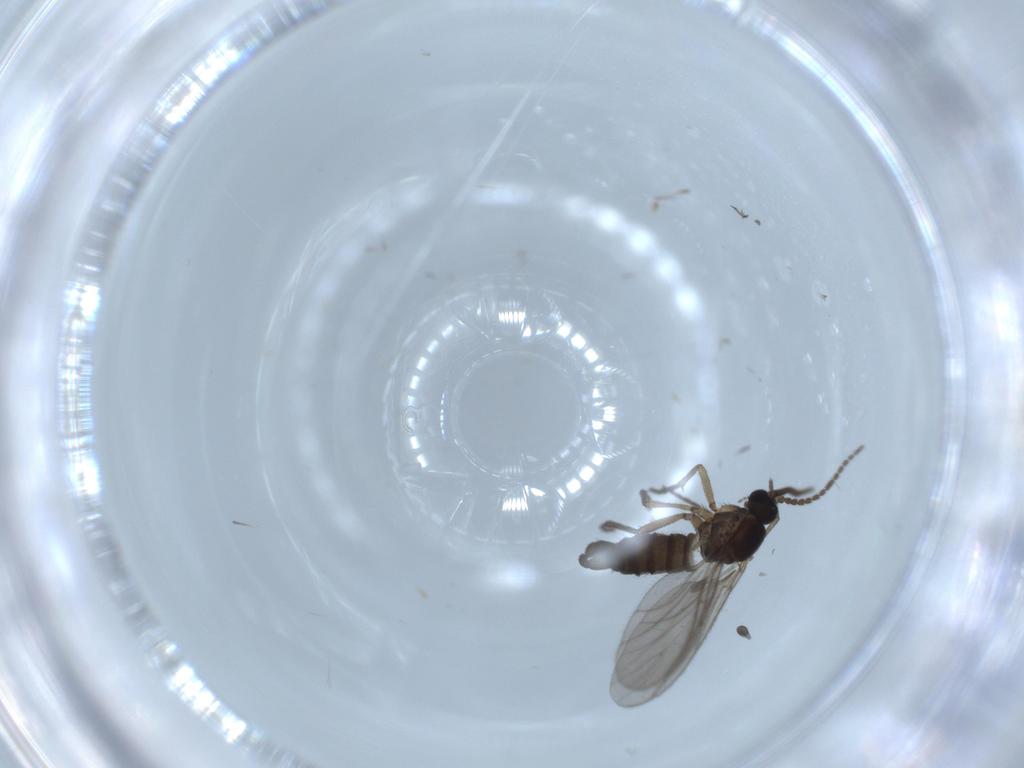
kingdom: Animalia
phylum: Arthropoda
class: Insecta
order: Diptera
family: Sciaridae
